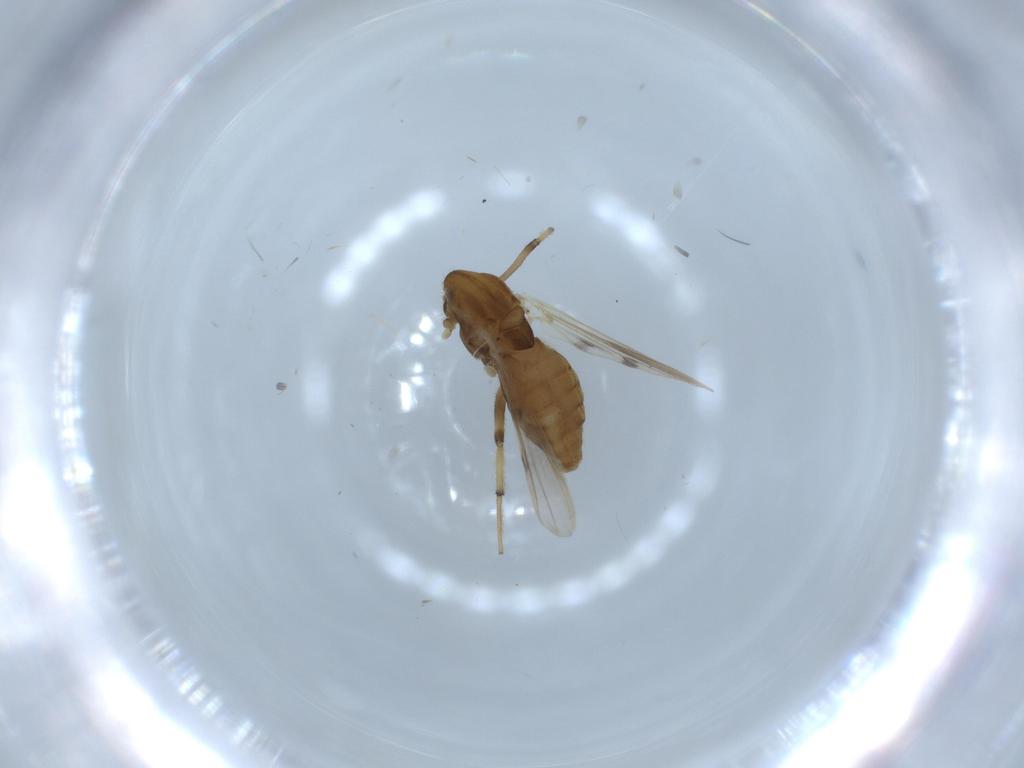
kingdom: Animalia
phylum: Arthropoda
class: Insecta
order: Diptera
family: Chironomidae
